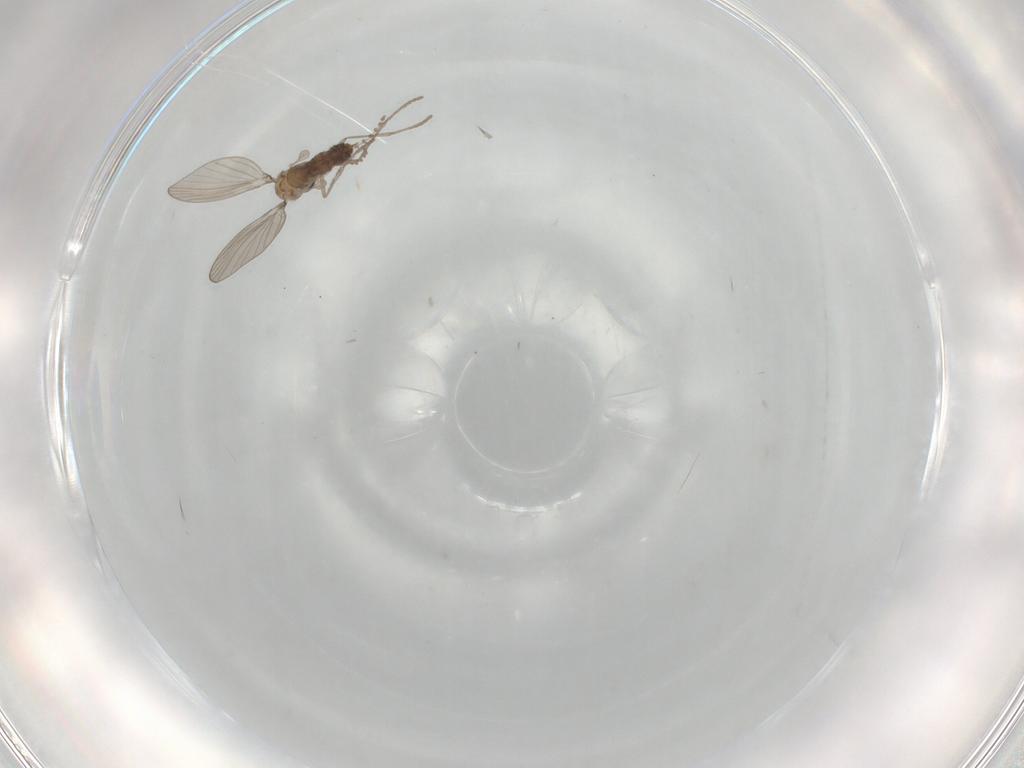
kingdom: Animalia
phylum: Arthropoda
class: Insecta
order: Diptera
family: Psychodidae
